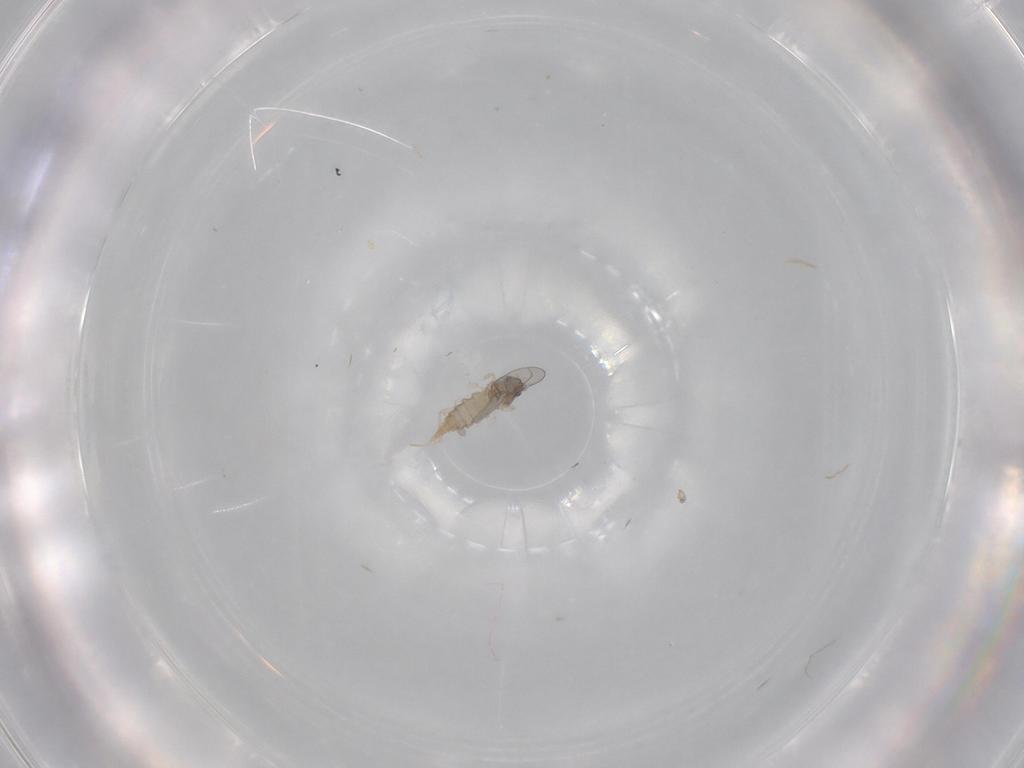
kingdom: Animalia
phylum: Arthropoda
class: Insecta
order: Diptera
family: Cecidomyiidae
